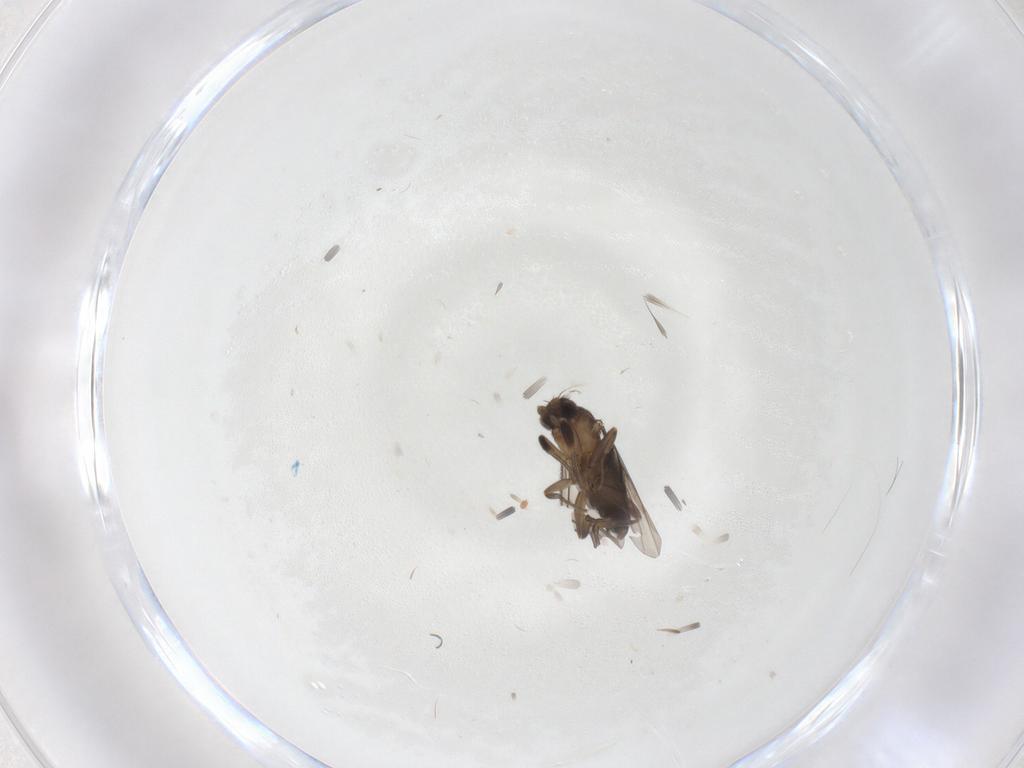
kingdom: Animalia
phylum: Arthropoda
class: Insecta
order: Diptera
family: Phoridae
